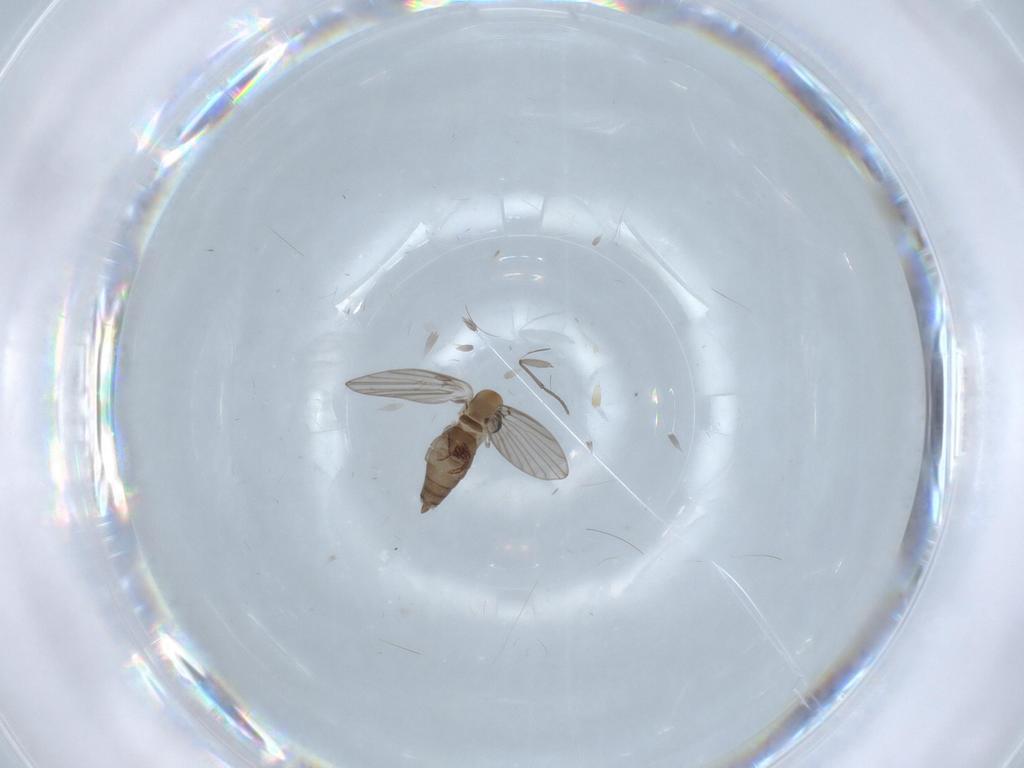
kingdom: Animalia
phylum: Arthropoda
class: Insecta
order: Diptera
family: Psychodidae
